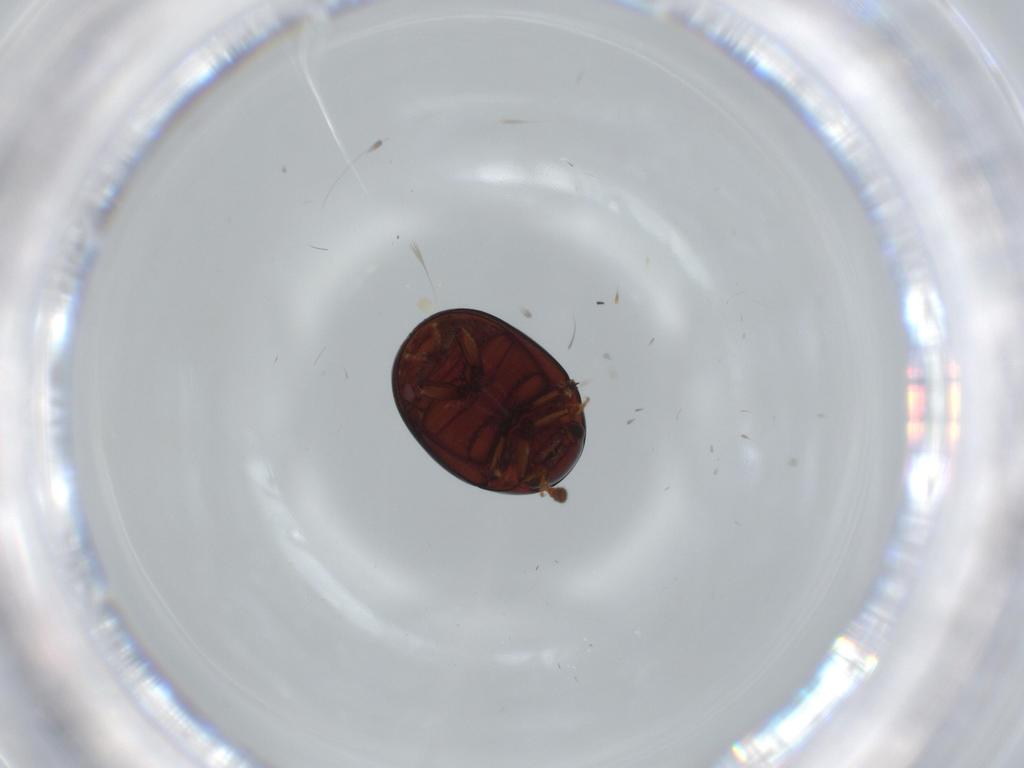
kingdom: Animalia
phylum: Arthropoda
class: Insecta
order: Coleoptera
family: Leiodidae
